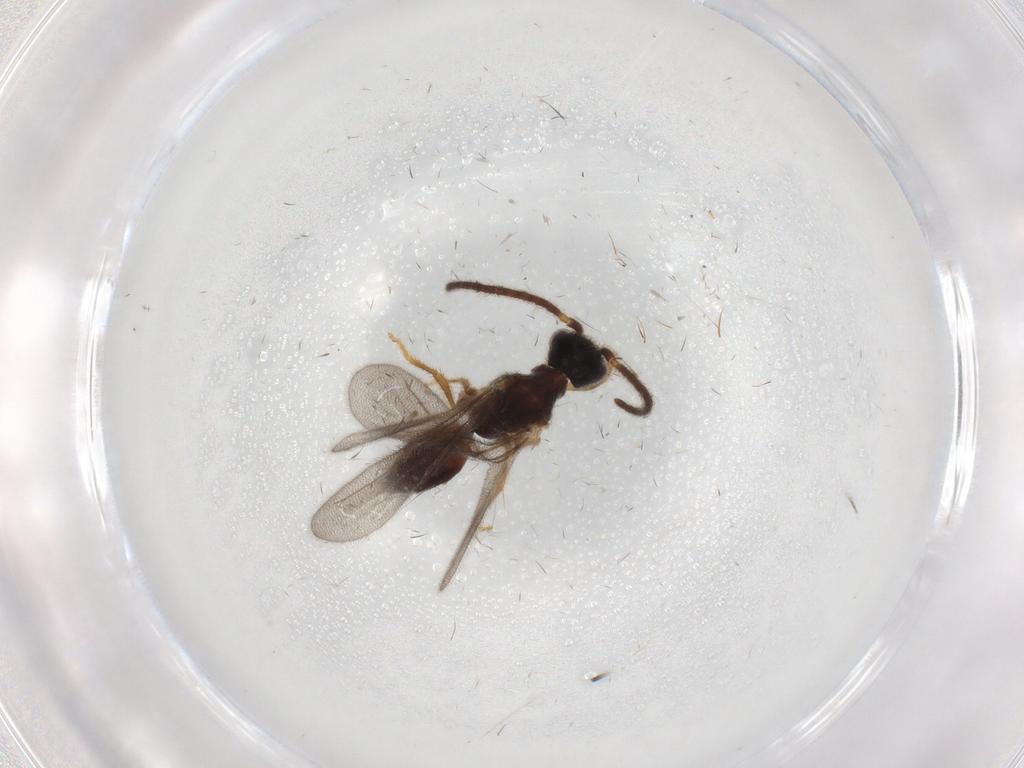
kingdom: Animalia
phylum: Arthropoda
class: Insecta
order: Hymenoptera
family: Bethylidae
